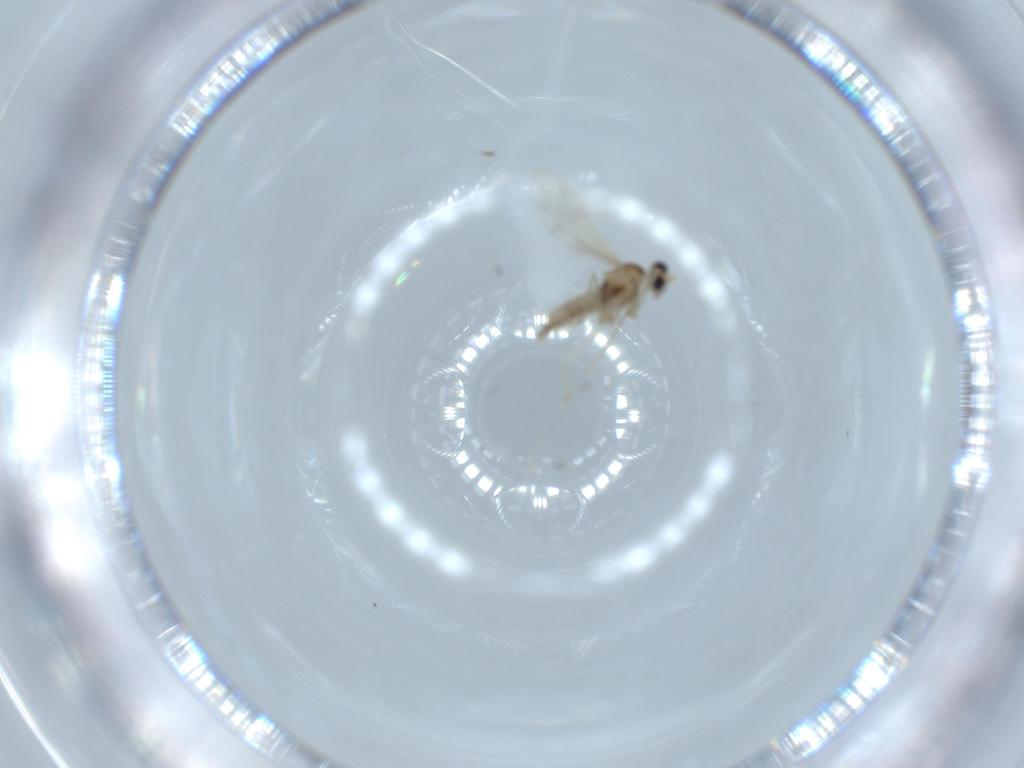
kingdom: Animalia
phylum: Arthropoda
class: Insecta
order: Diptera
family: Cecidomyiidae
